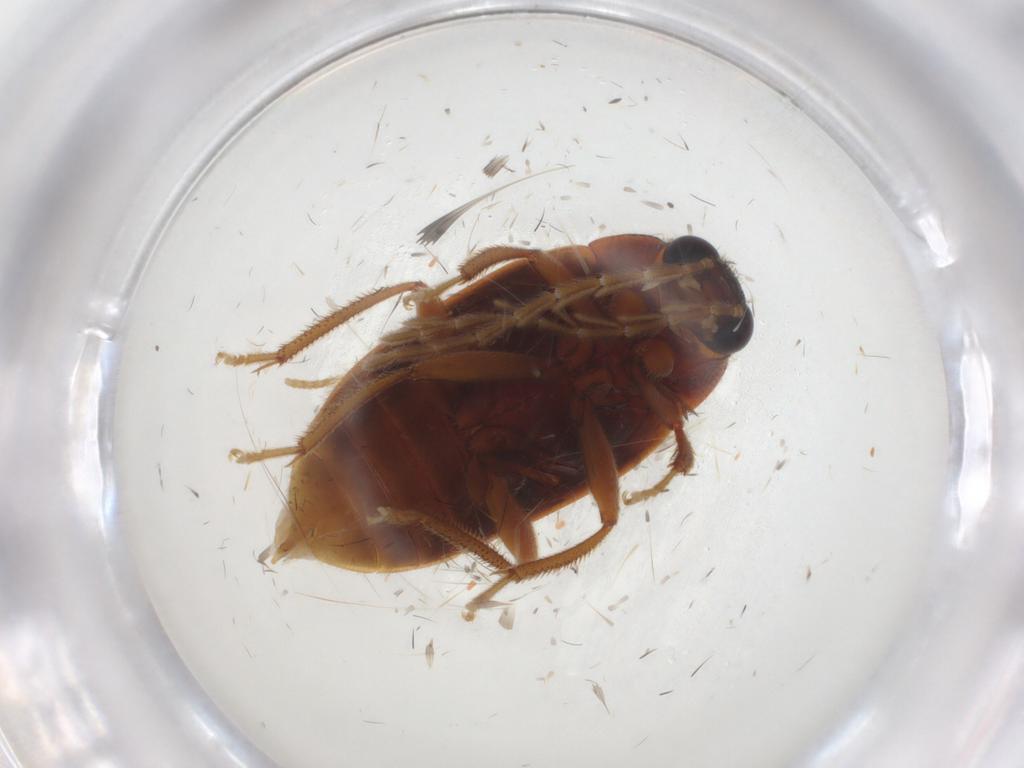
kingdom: Animalia
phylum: Arthropoda
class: Insecta
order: Coleoptera
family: Ptilodactylidae
